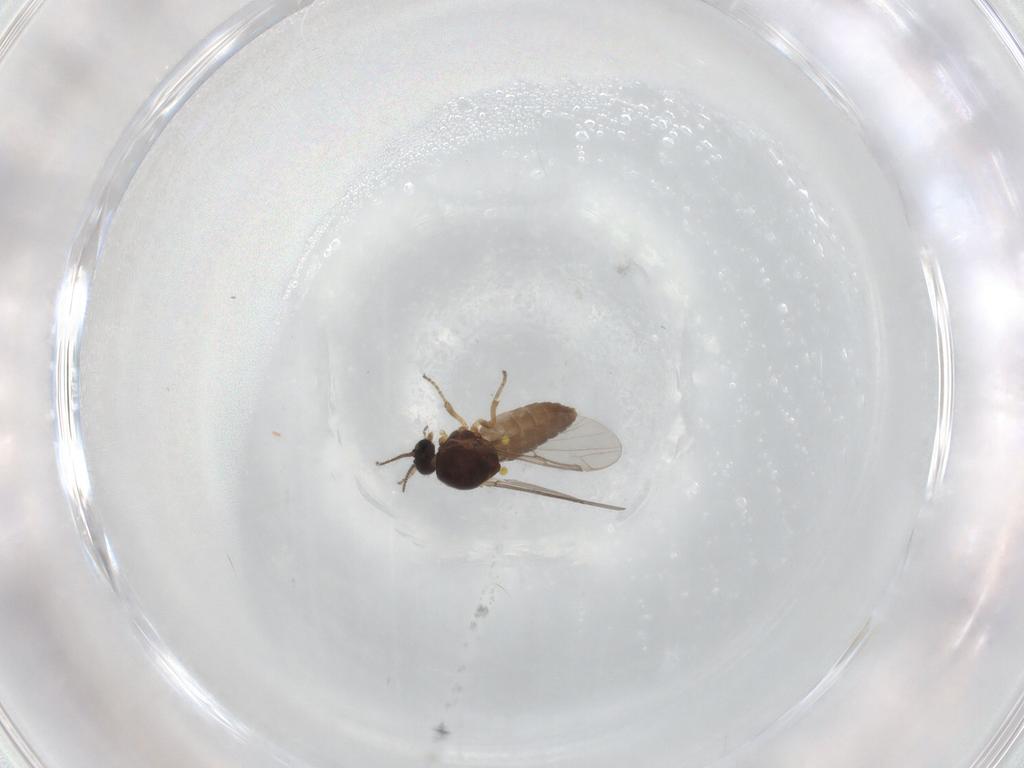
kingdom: Animalia
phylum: Arthropoda
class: Insecta
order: Diptera
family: Ceratopogonidae
